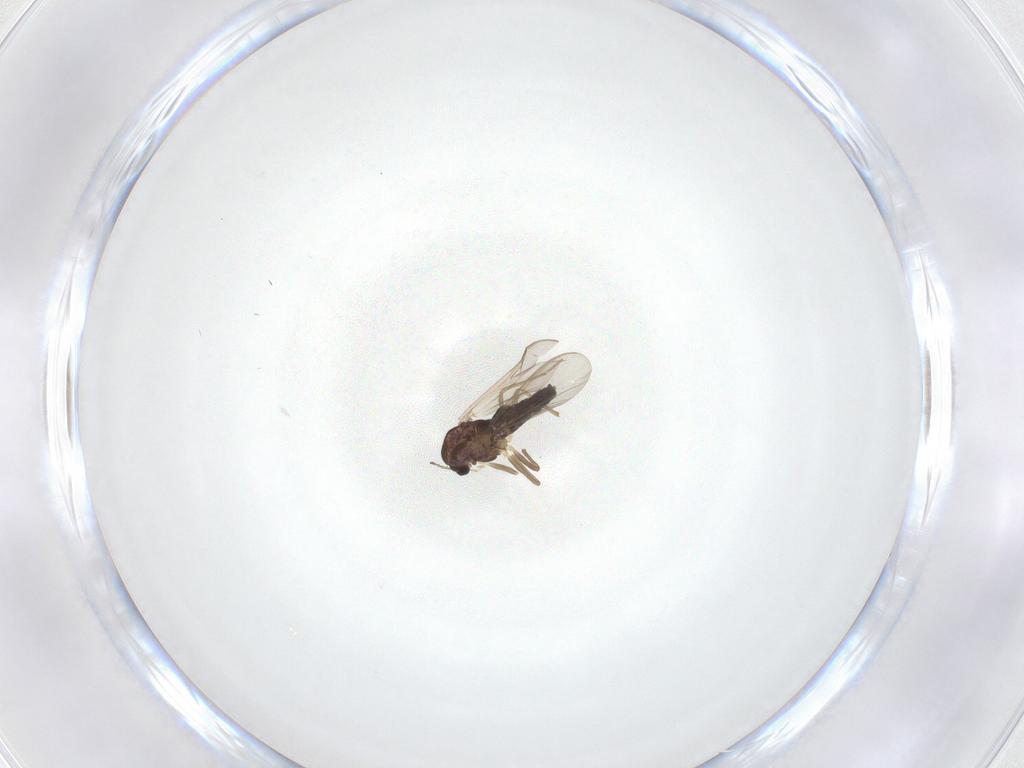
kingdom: Animalia
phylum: Arthropoda
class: Insecta
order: Diptera
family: Chironomidae
